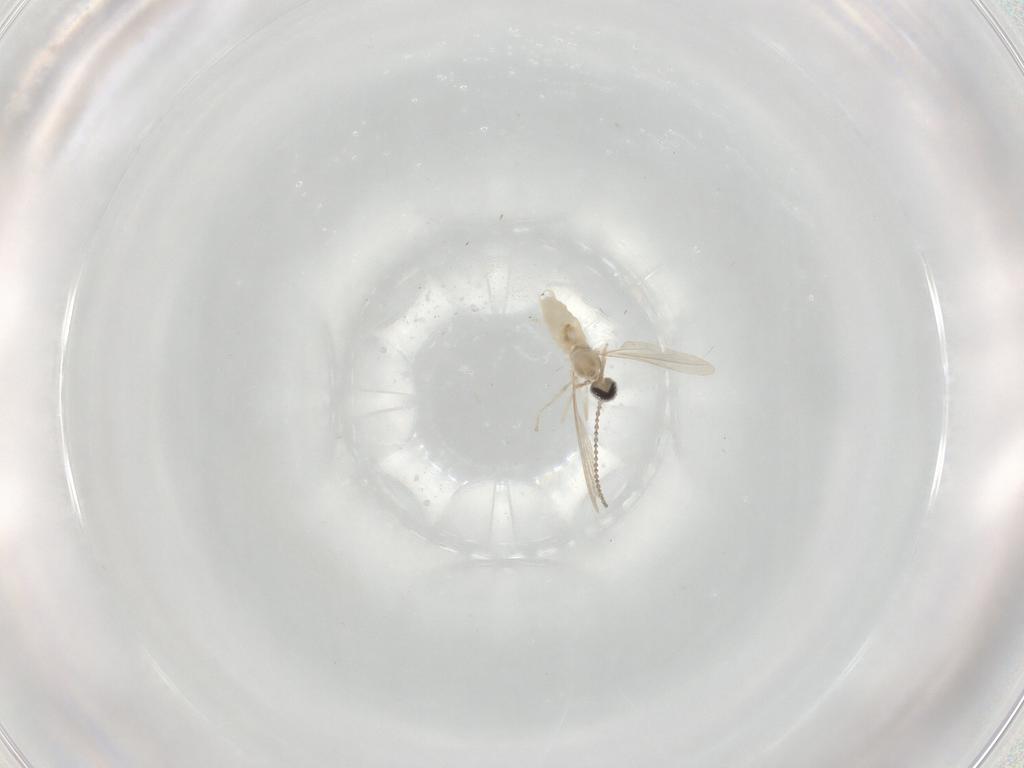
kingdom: Animalia
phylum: Arthropoda
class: Insecta
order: Diptera
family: Cecidomyiidae
